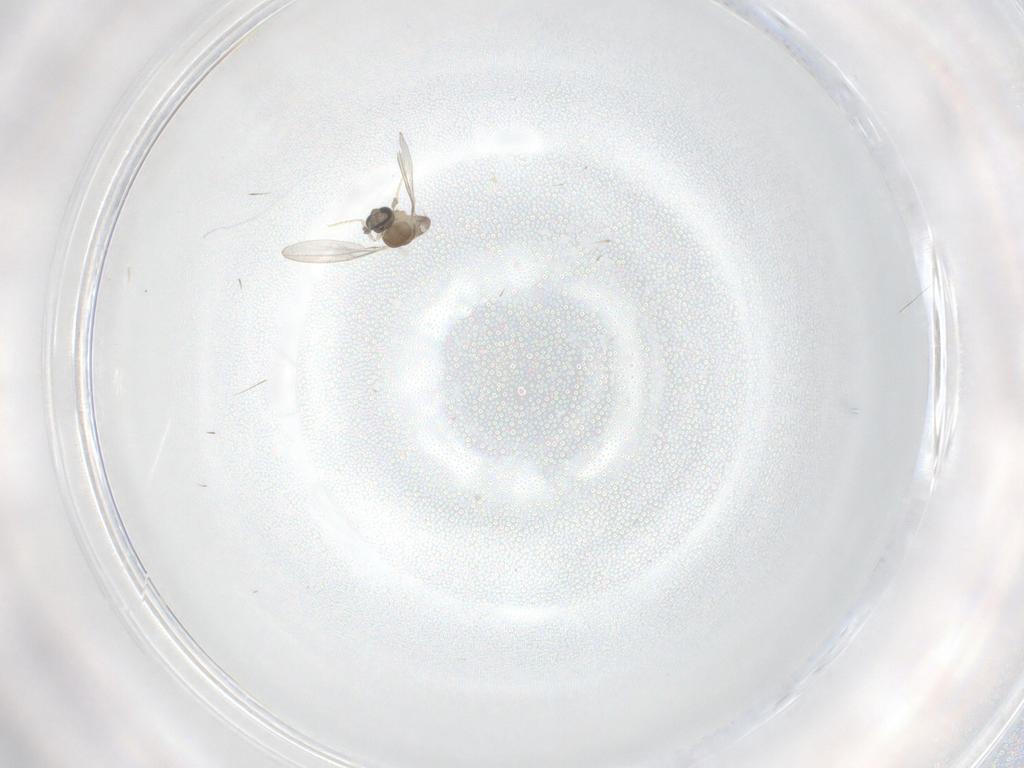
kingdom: Animalia
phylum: Arthropoda
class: Insecta
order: Diptera
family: Cecidomyiidae
